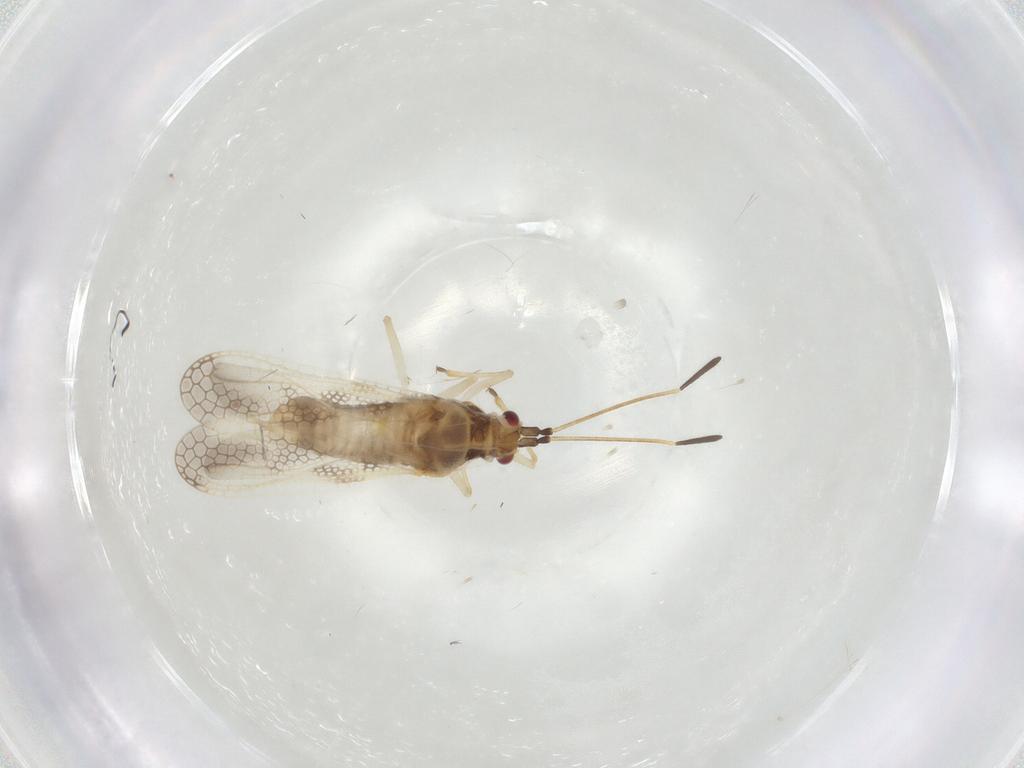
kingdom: Animalia
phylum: Arthropoda
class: Insecta
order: Hemiptera
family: Tingidae
